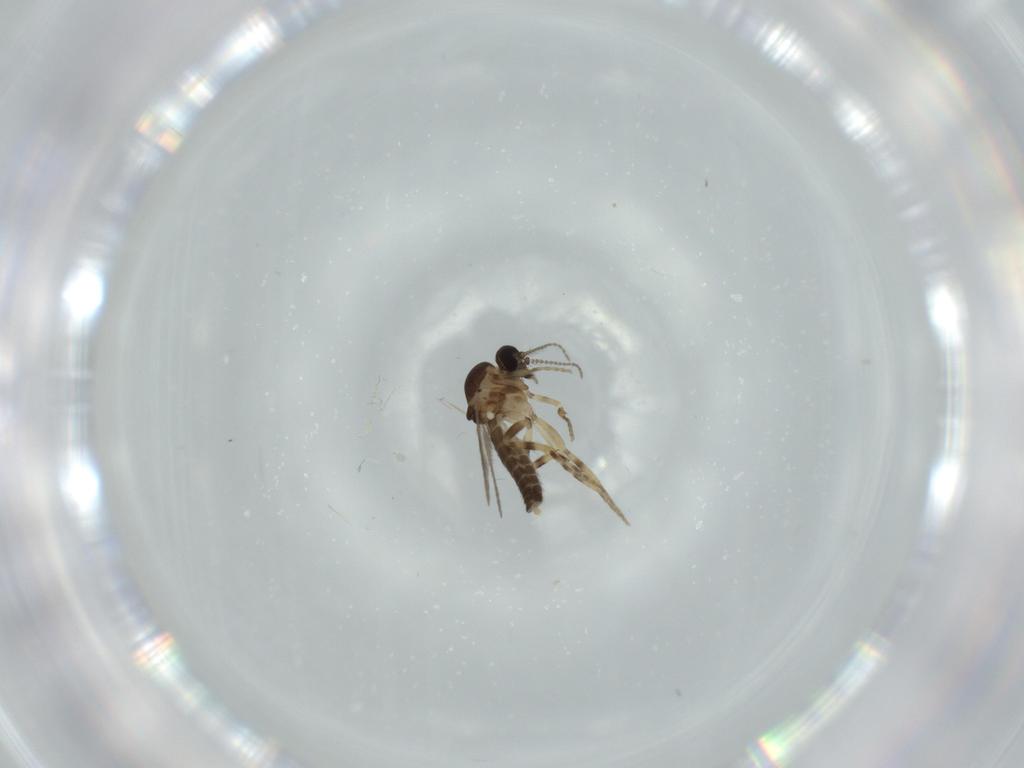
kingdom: Animalia
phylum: Arthropoda
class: Insecta
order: Diptera
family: Ceratopogonidae
